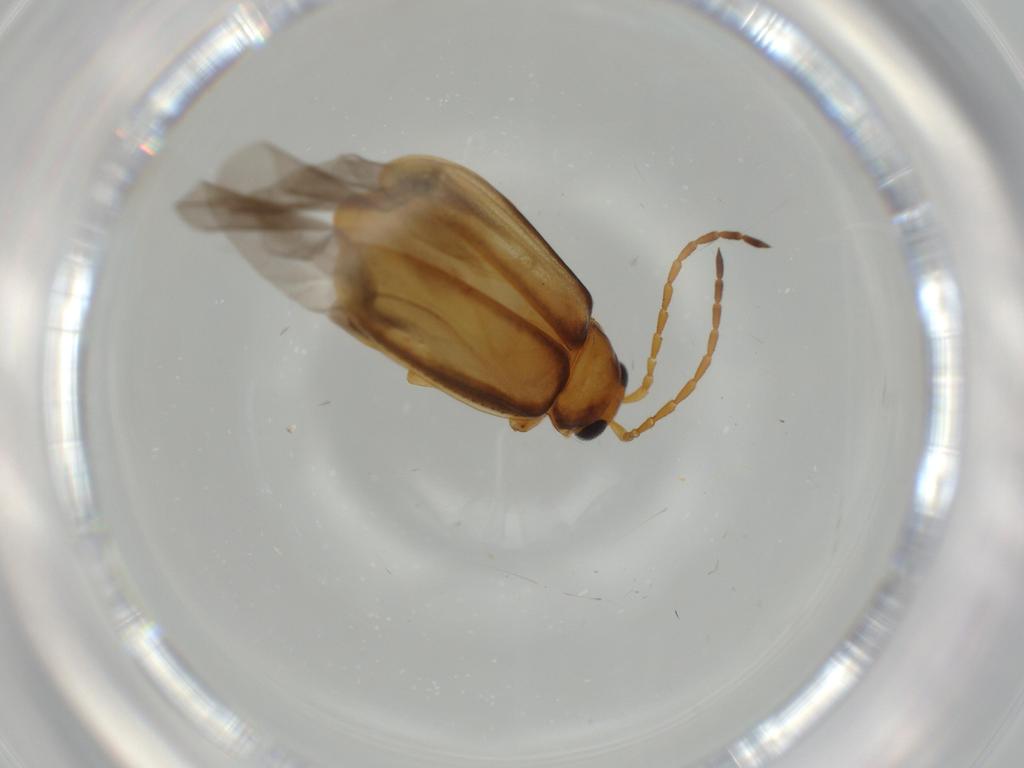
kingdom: Animalia
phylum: Arthropoda
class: Insecta
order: Coleoptera
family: Chrysomelidae
